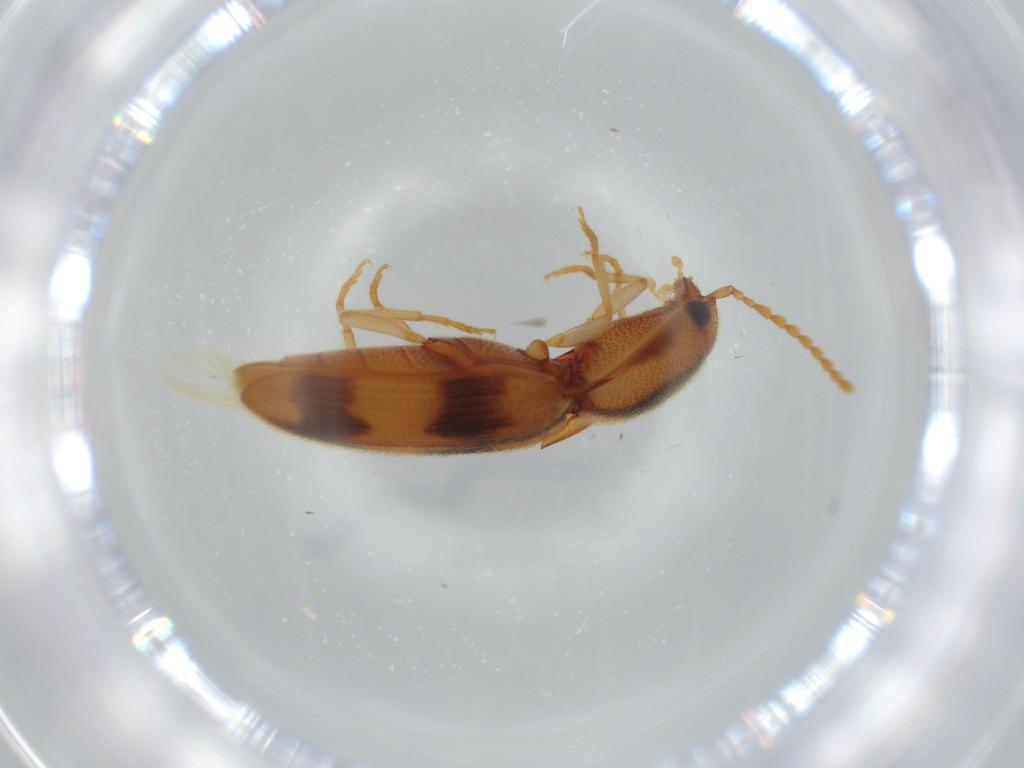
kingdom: Animalia
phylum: Arthropoda
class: Insecta
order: Coleoptera
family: Elateridae
